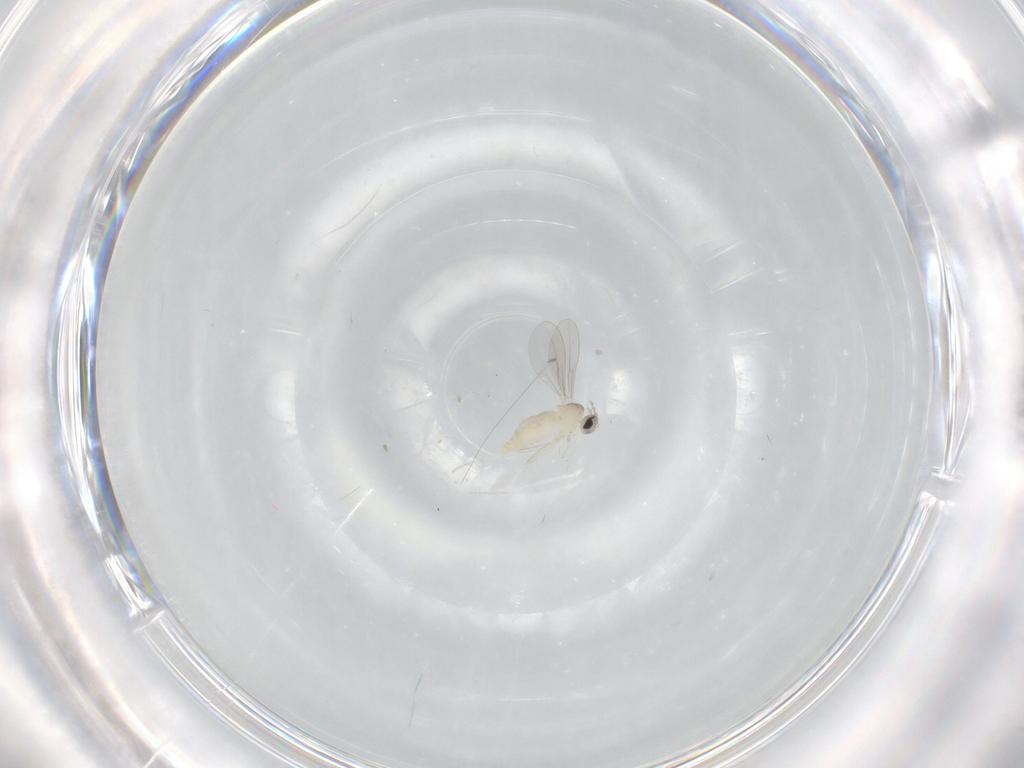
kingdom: Animalia
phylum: Arthropoda
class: Insecta
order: Diptera
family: Cecidomyiidae
